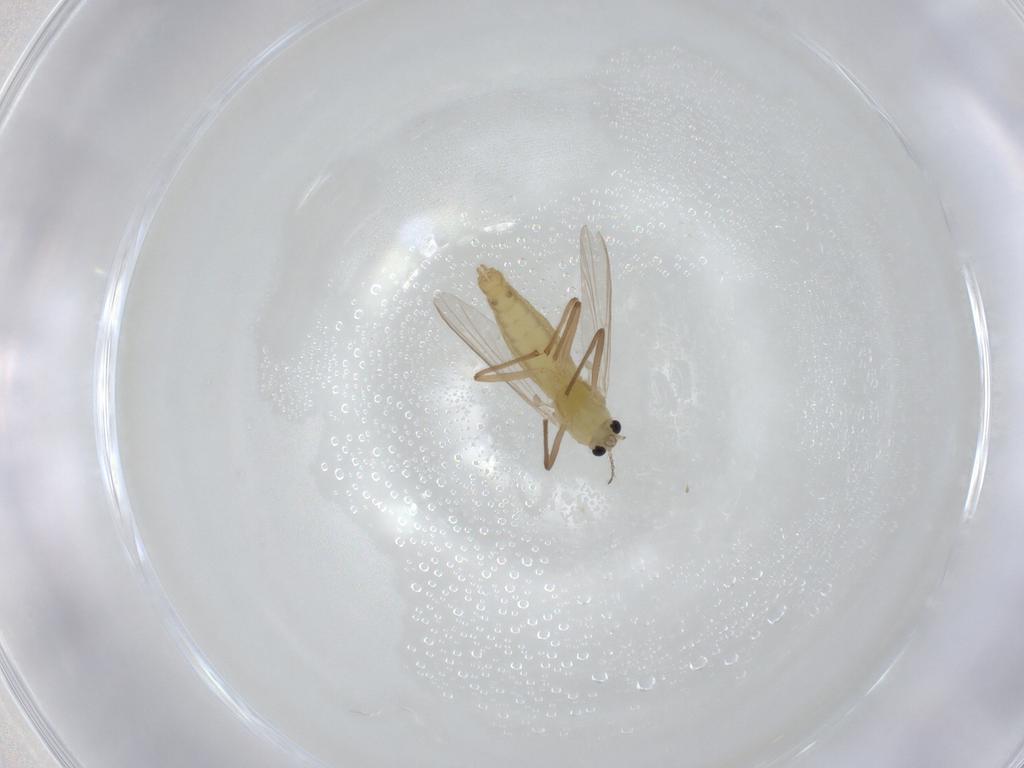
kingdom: Animalia
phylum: Arthropoda
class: Insecta
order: Diptera
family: Chironomidae
